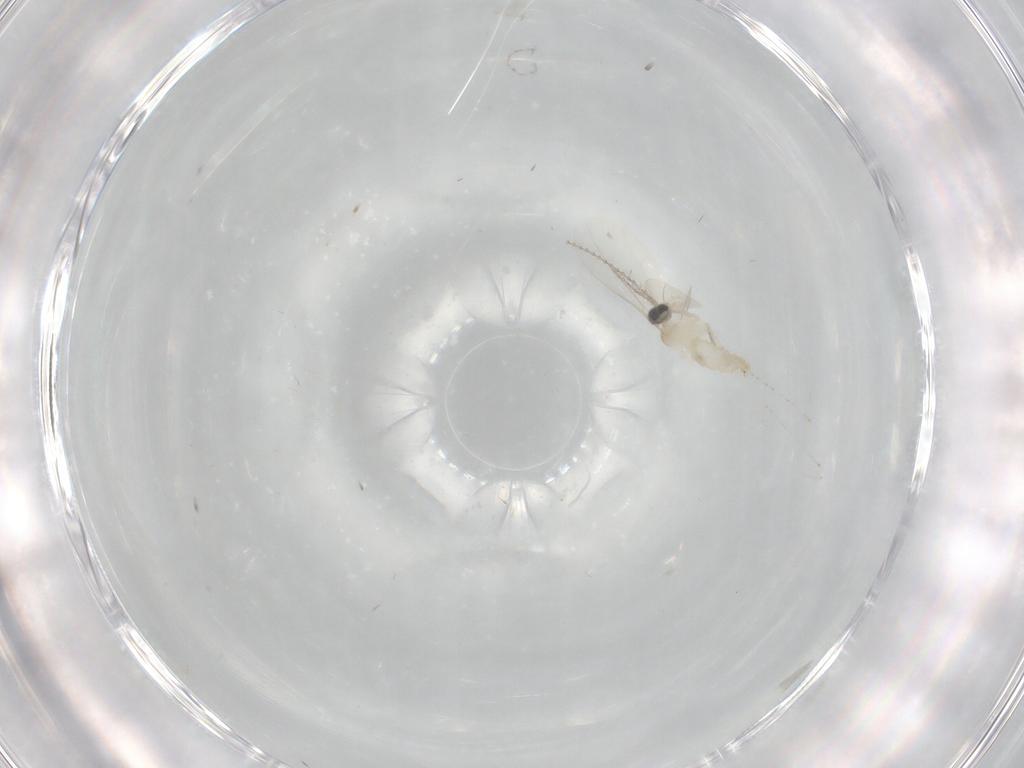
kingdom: Animalia
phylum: Arthropoda
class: Insecta
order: Diptera
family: Cecidomyiidae
